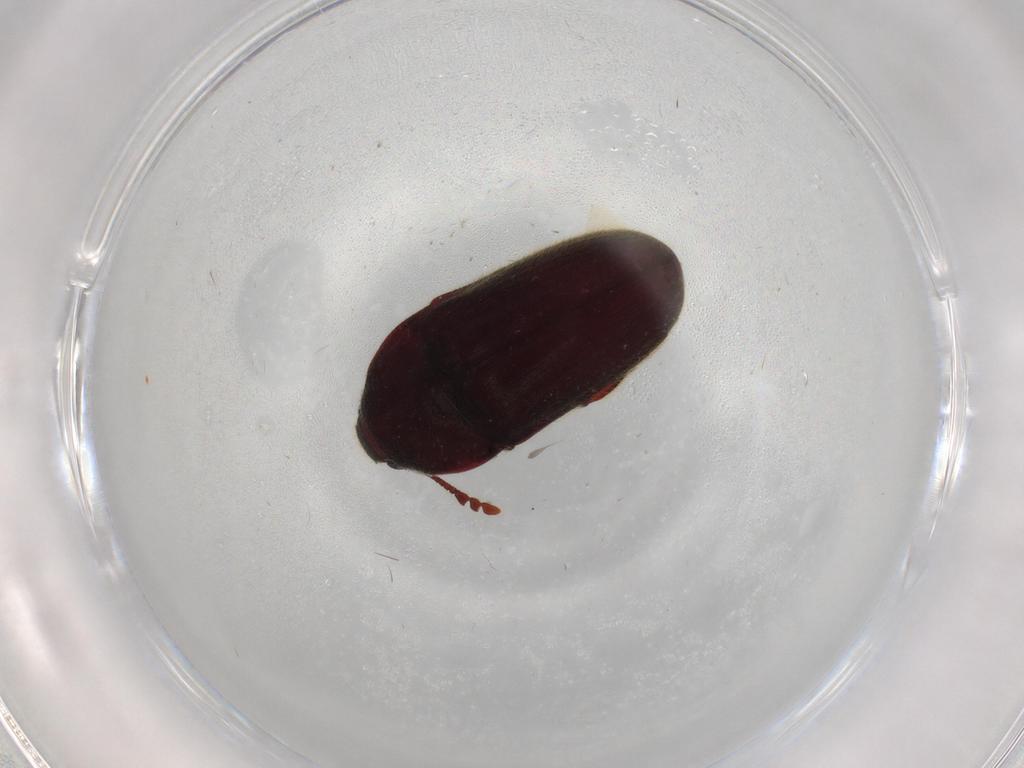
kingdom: Animalia
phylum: Arthropoda
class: Insecta
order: Coleoptera
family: Throscidae
